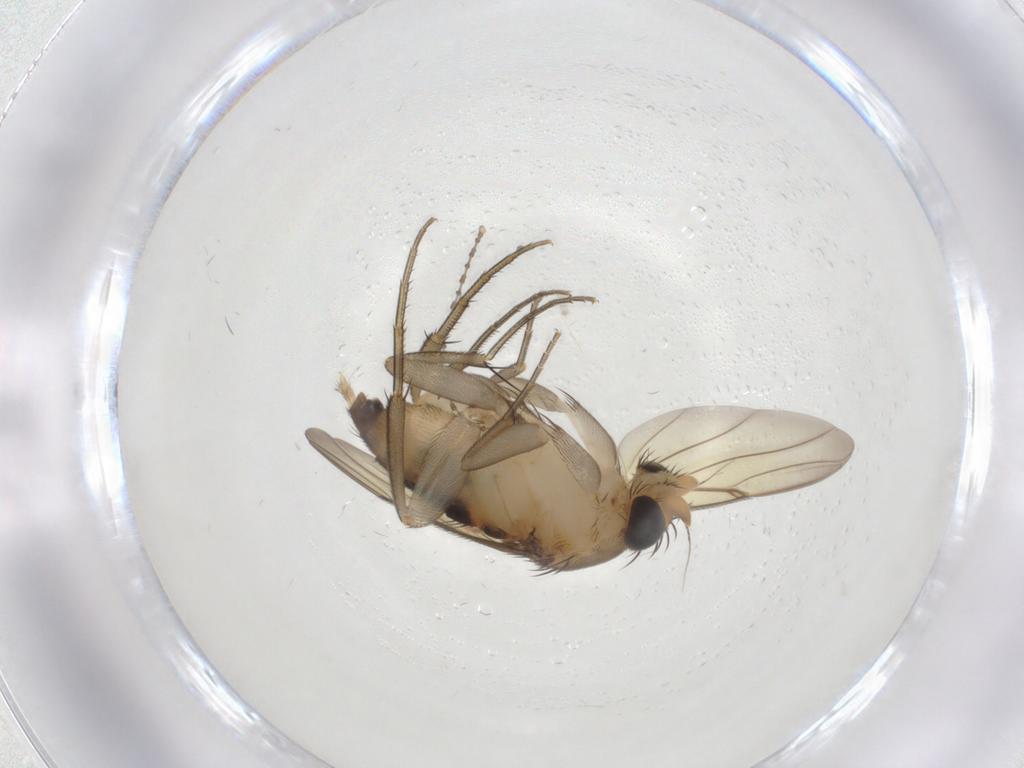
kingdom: Animalia
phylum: Arthropoda
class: Insecta
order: Diptera
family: Phoridae
